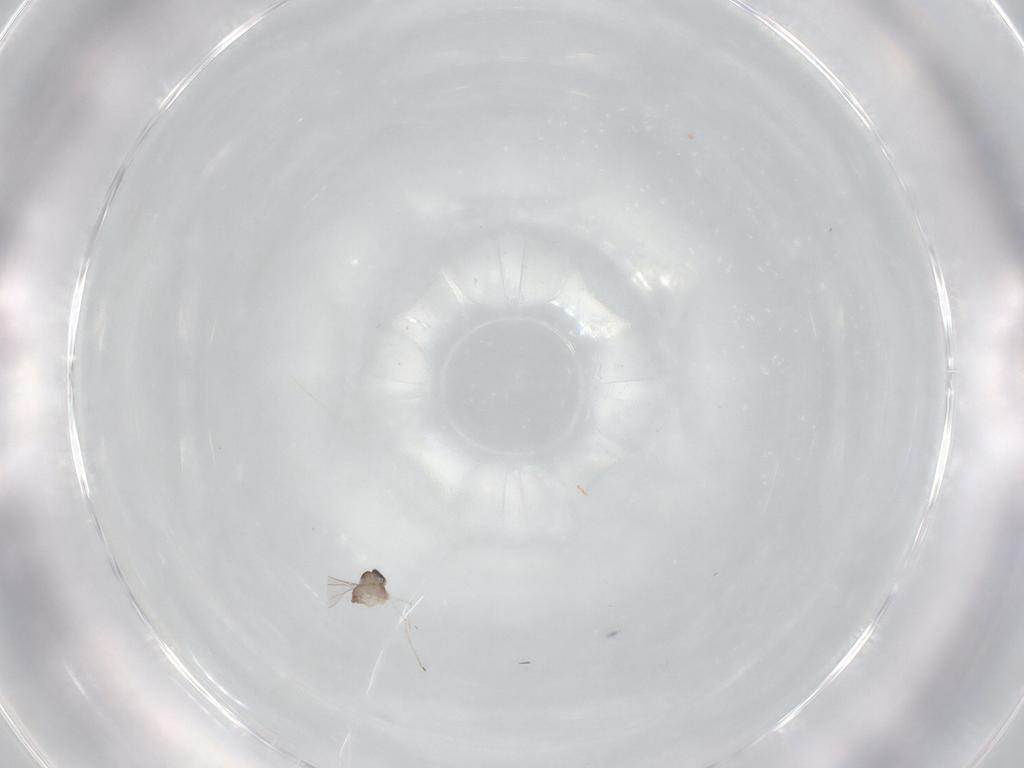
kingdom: Animalia
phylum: Arthropoda
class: Insecta
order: Diptera
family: Cecidomyiidae
